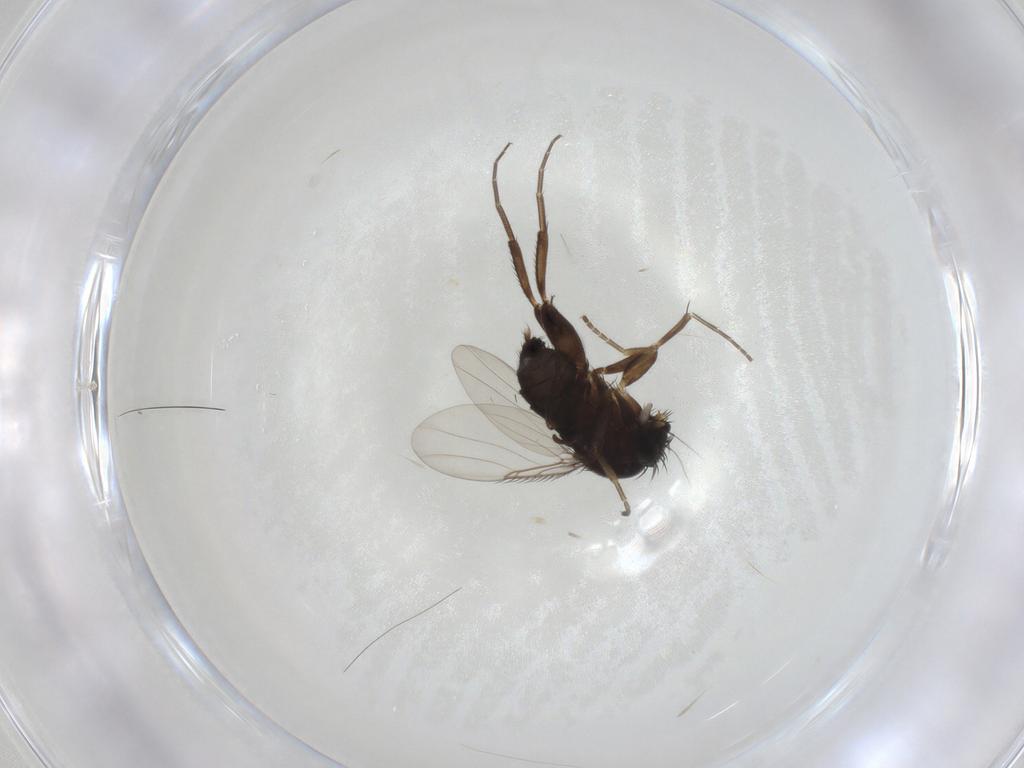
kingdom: Animalia
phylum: Arthropoda
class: Insecta
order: Diptera
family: Phoridae
